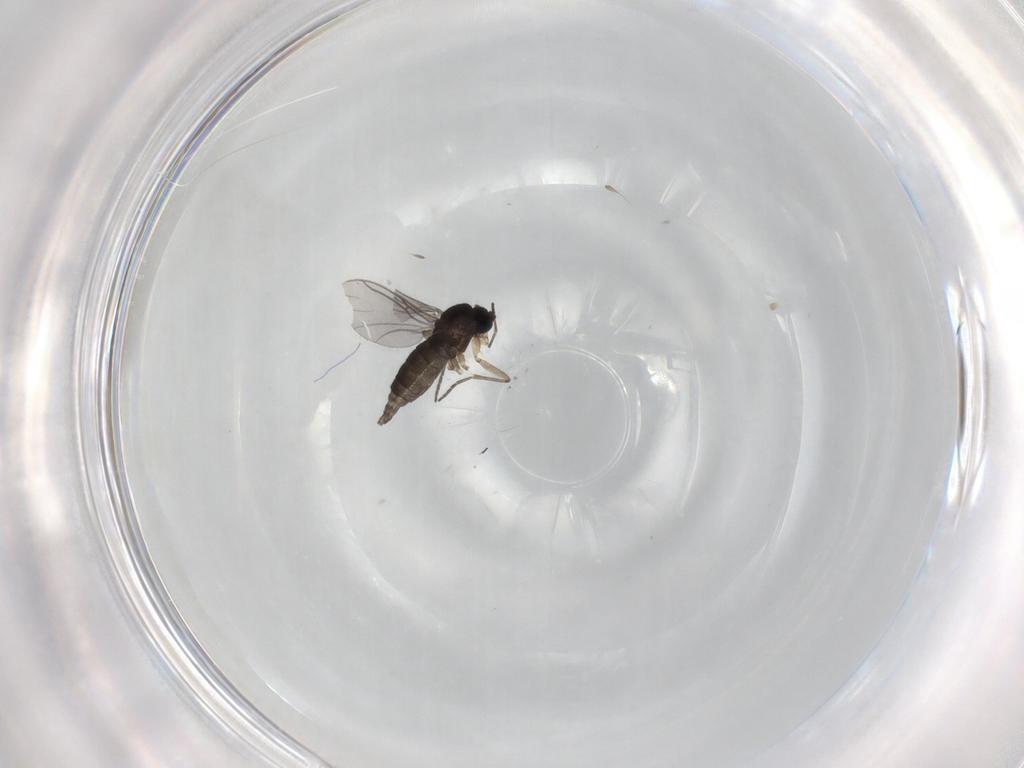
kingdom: Animalia
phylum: Arthropoda
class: Insecta
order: Diptera
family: Sciaridae
